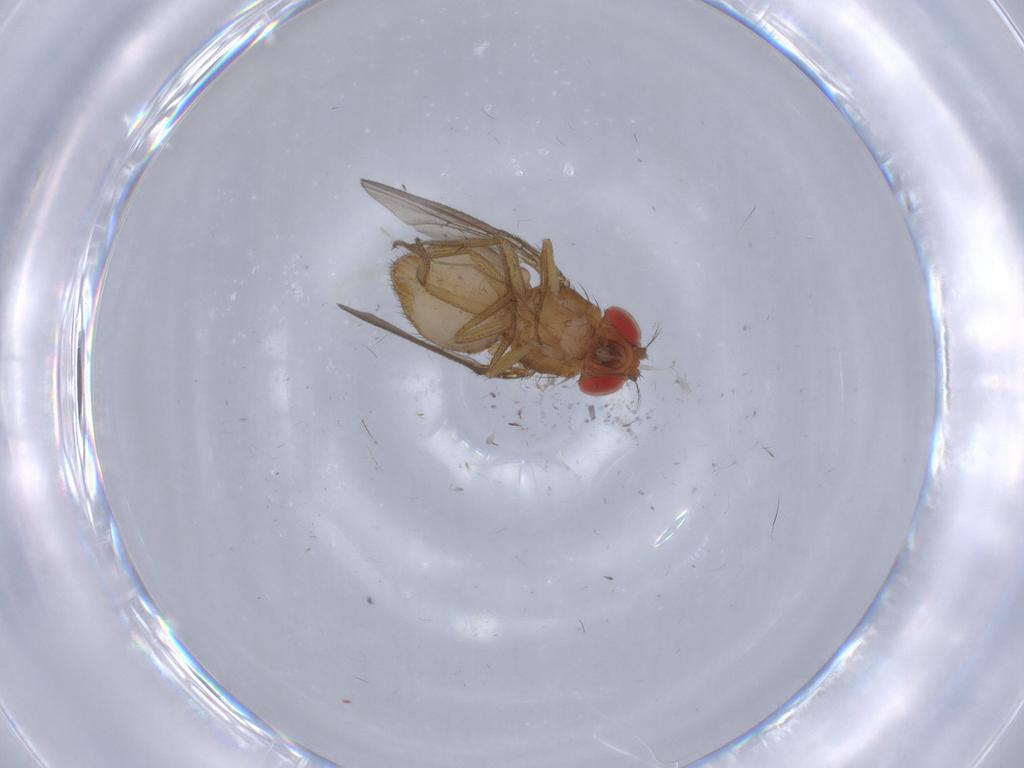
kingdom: Animalia
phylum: Arthropoda
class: Insecta
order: Diptera
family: Drosophilidae
